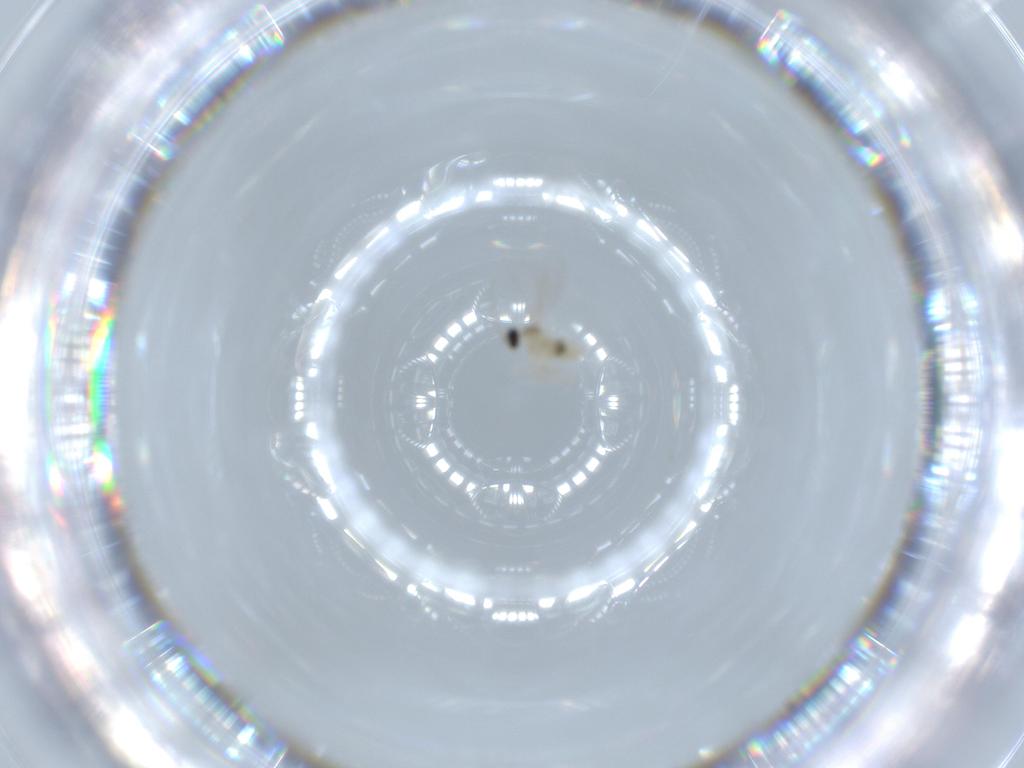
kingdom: Animalia
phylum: Arthropoda
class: Insecta
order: Diptera
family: Cecidomyiidae
